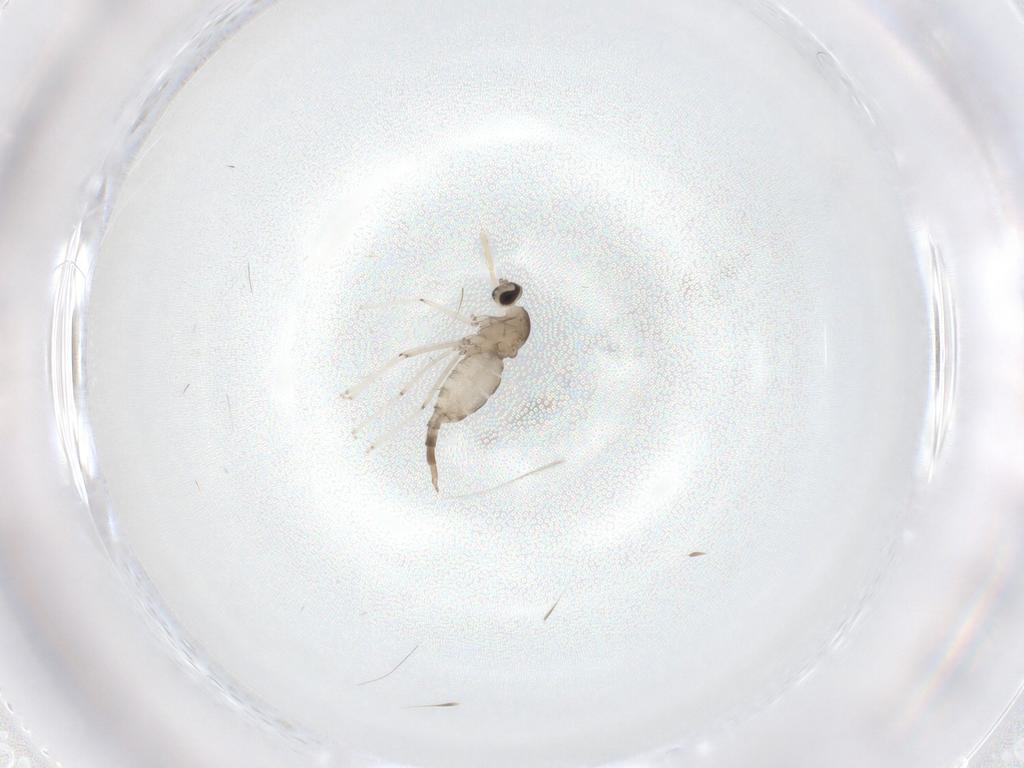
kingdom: Animalia
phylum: Arthropoda
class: Insecta
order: Diptera
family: Cecidomyiidae
